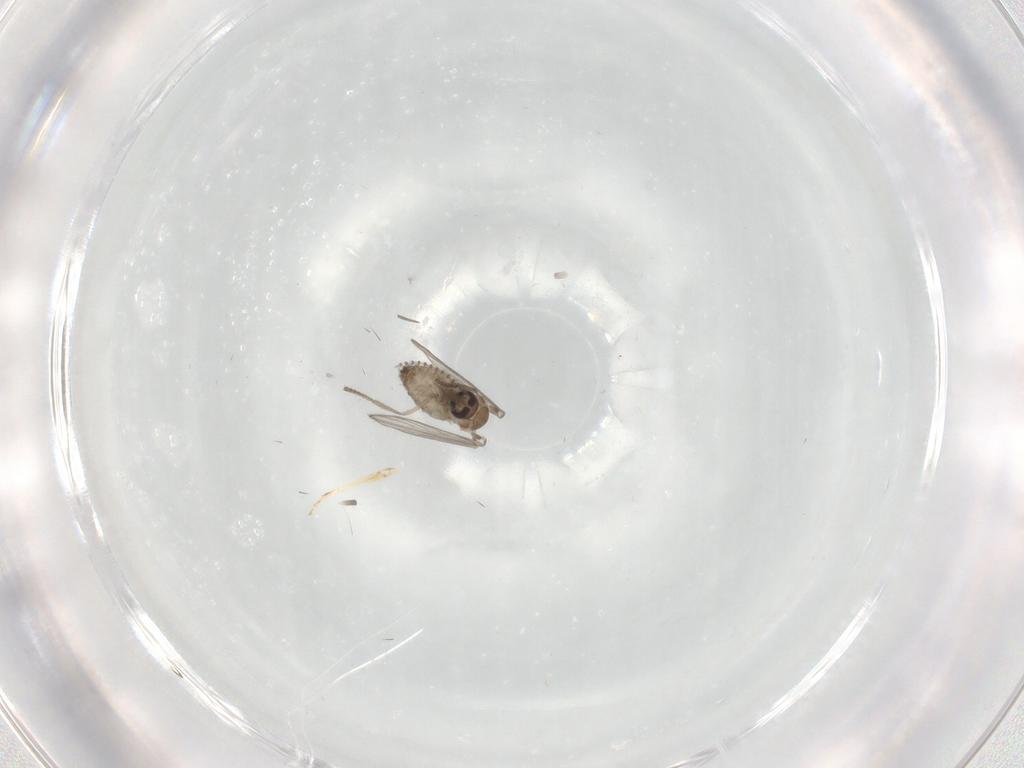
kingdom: Animalia
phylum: Arthropoda
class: Insecta
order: Diptera
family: Psychodidae
